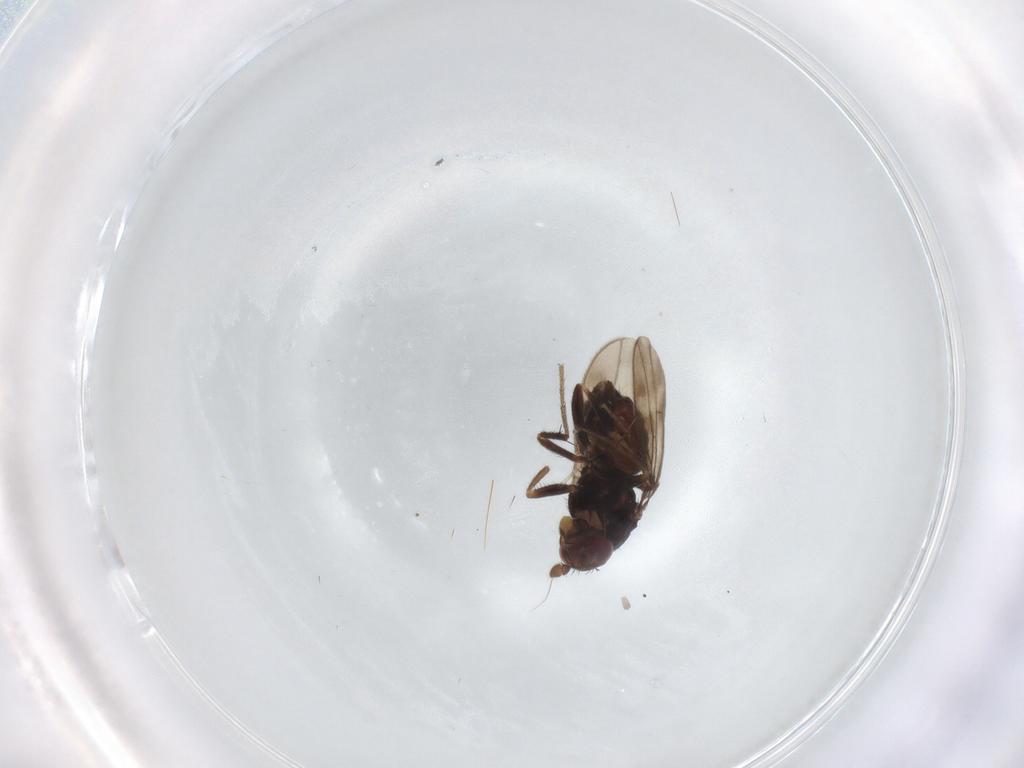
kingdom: Animalia
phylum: Arthropoda
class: Insecta
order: Diptera
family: Sphaeroceridae
